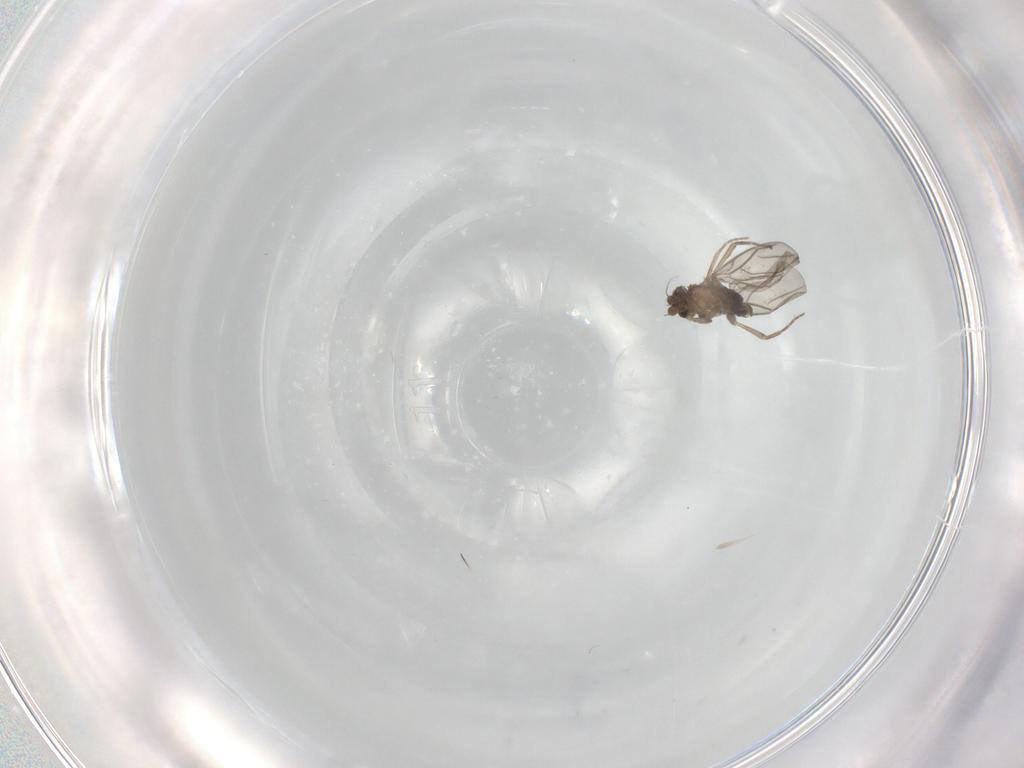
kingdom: Animalia
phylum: Arthropoda
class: Insecta
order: Diptera
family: Phoridae
